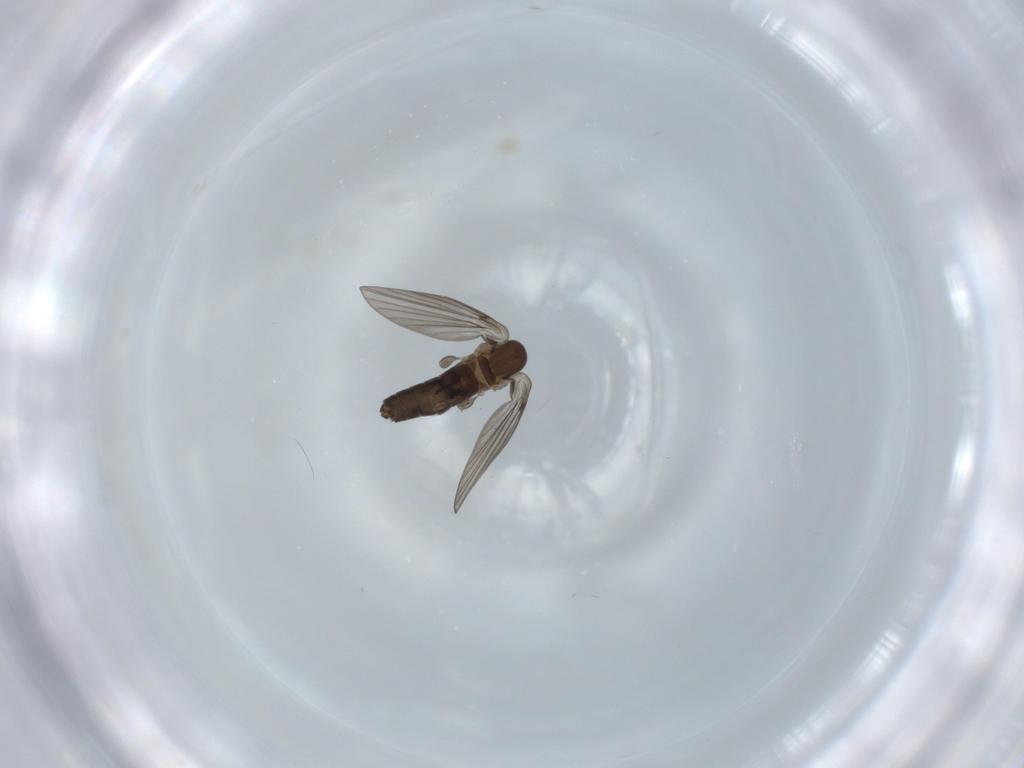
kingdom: Animalia
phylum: Arthropoda
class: Insecta
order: Diptera
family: Psychodidae
